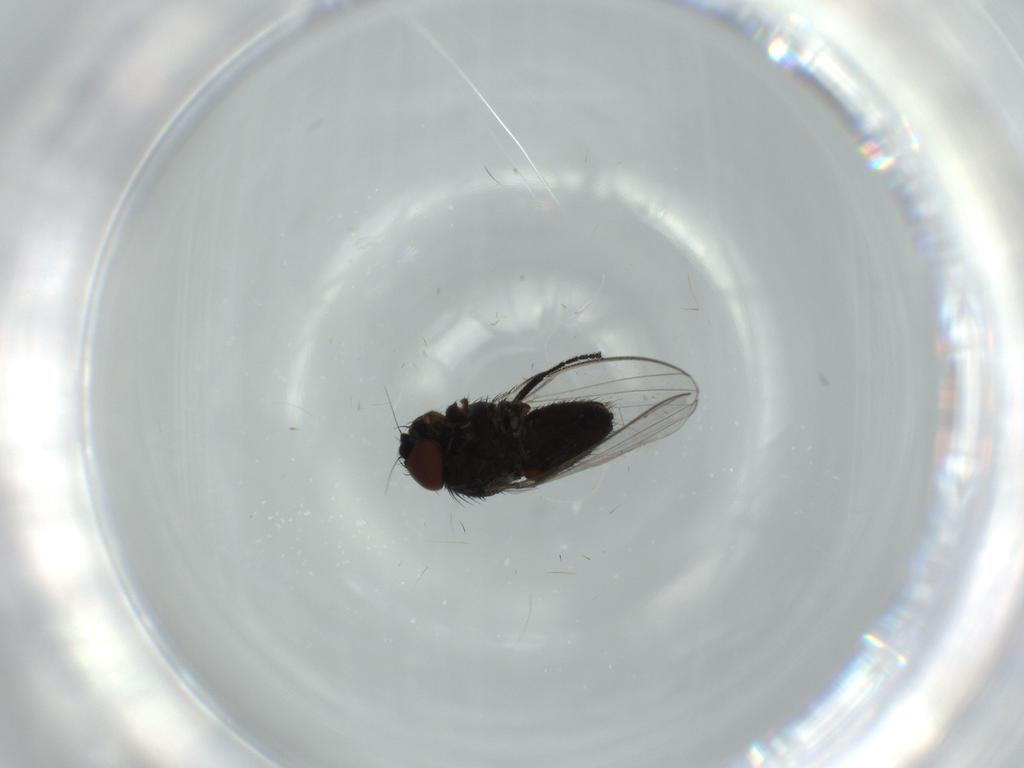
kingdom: Animalia
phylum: Arthropoda
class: Insecta
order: Diptera
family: Milichiidae
